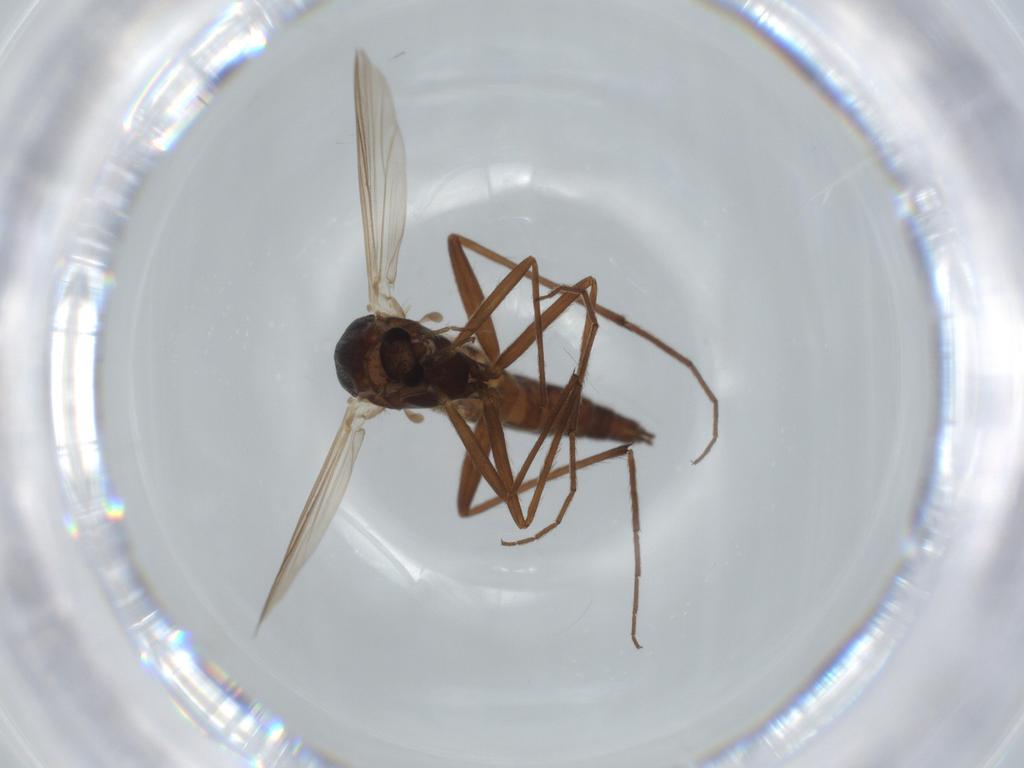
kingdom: Animalia
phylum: Arthropoda
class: Insecta
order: Diptera
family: Chironomidae
